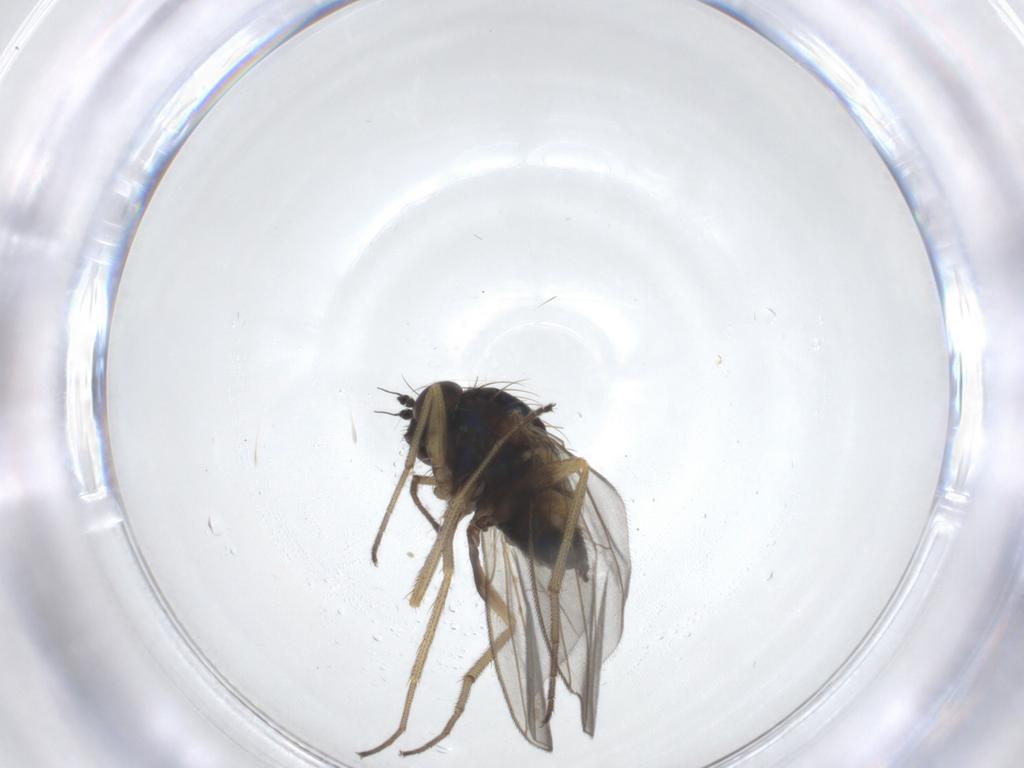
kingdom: Animalia
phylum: Arthropoda
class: Insecta
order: Diptera
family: Dolichopodidae
